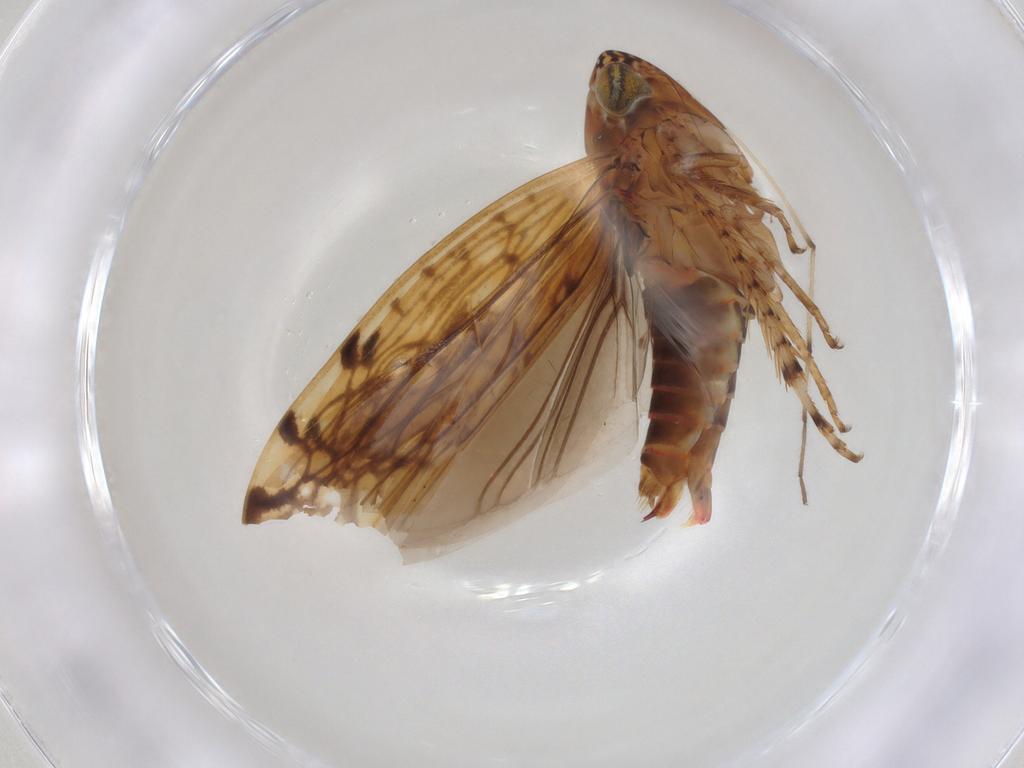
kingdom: Animalia
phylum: Arthropoda
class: Insecta
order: Hemiptera
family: Cicadellidae
